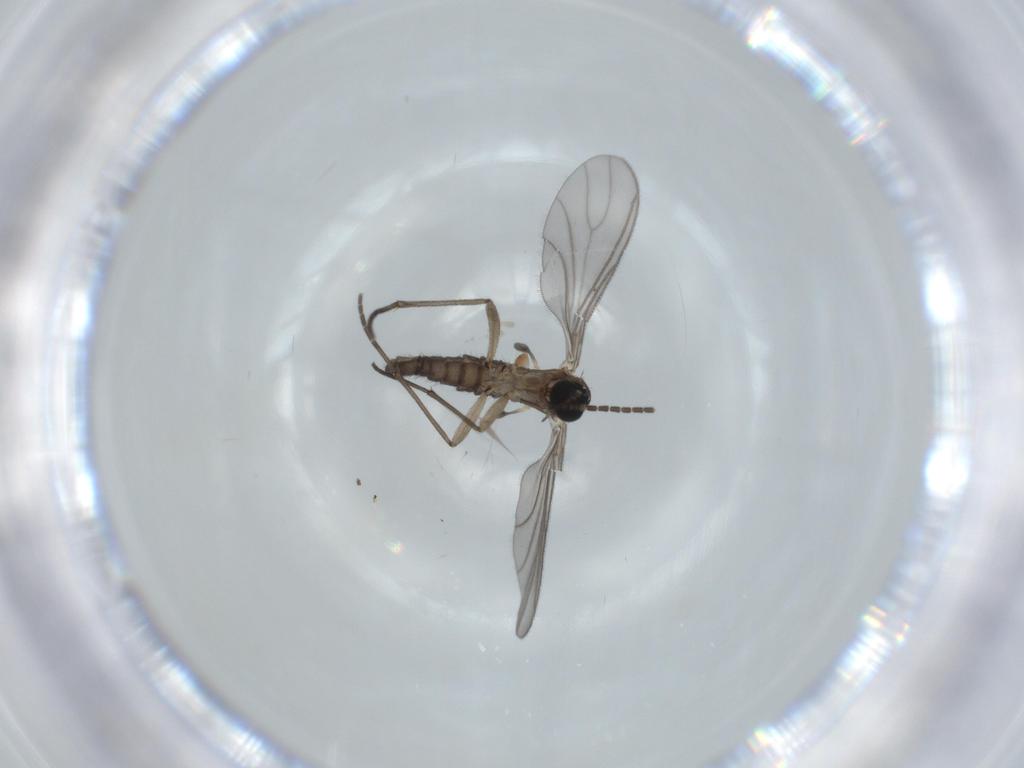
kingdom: Animalia
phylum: Arthropoda
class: Insecta
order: Diptera
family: Sciaridae
